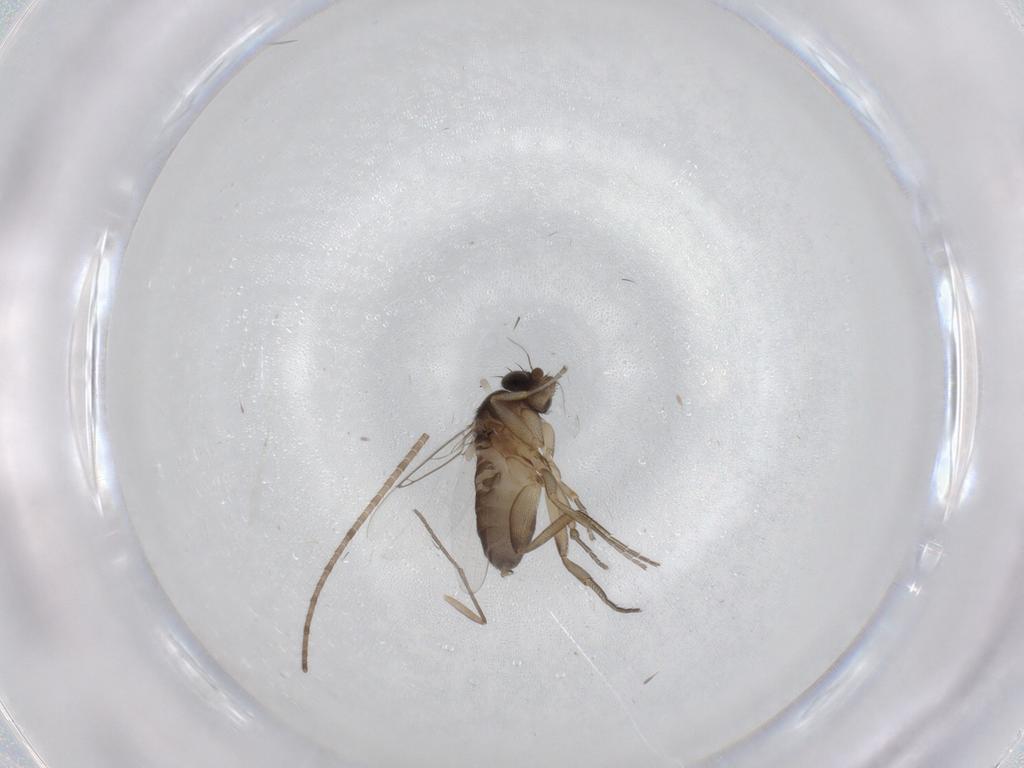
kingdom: Animalia
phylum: Arthropoda
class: Insecta
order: Diptera
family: Phoridae
